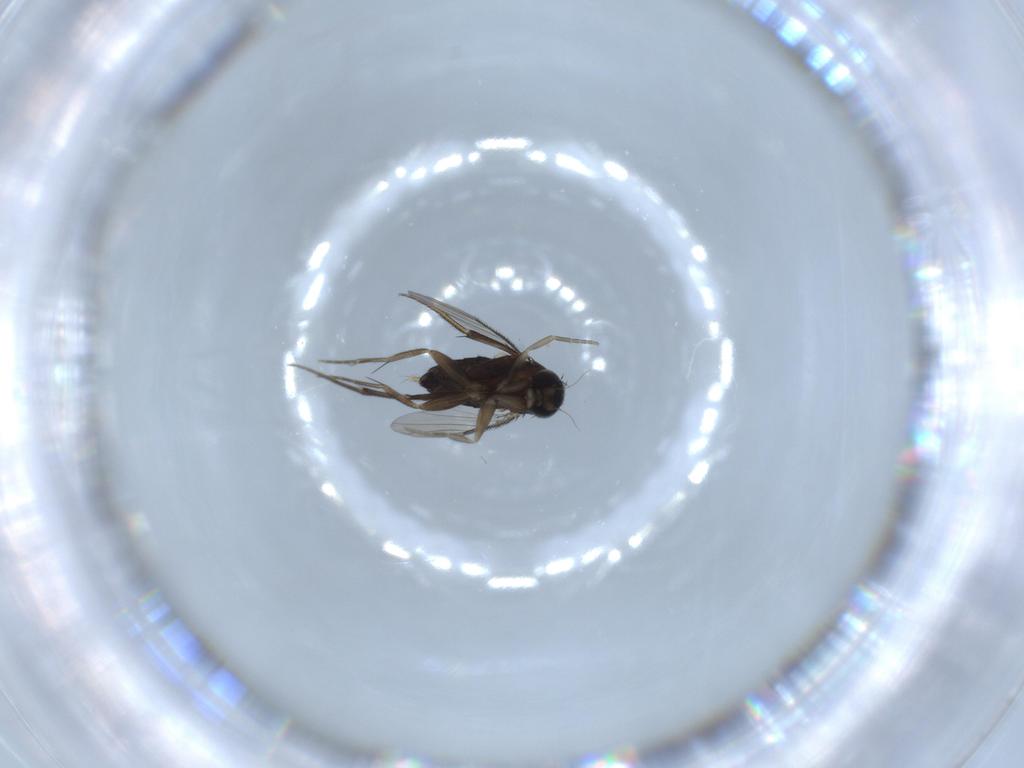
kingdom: Animalia
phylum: Arthropoda
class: Insecta
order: Diptera
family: Phoridae
